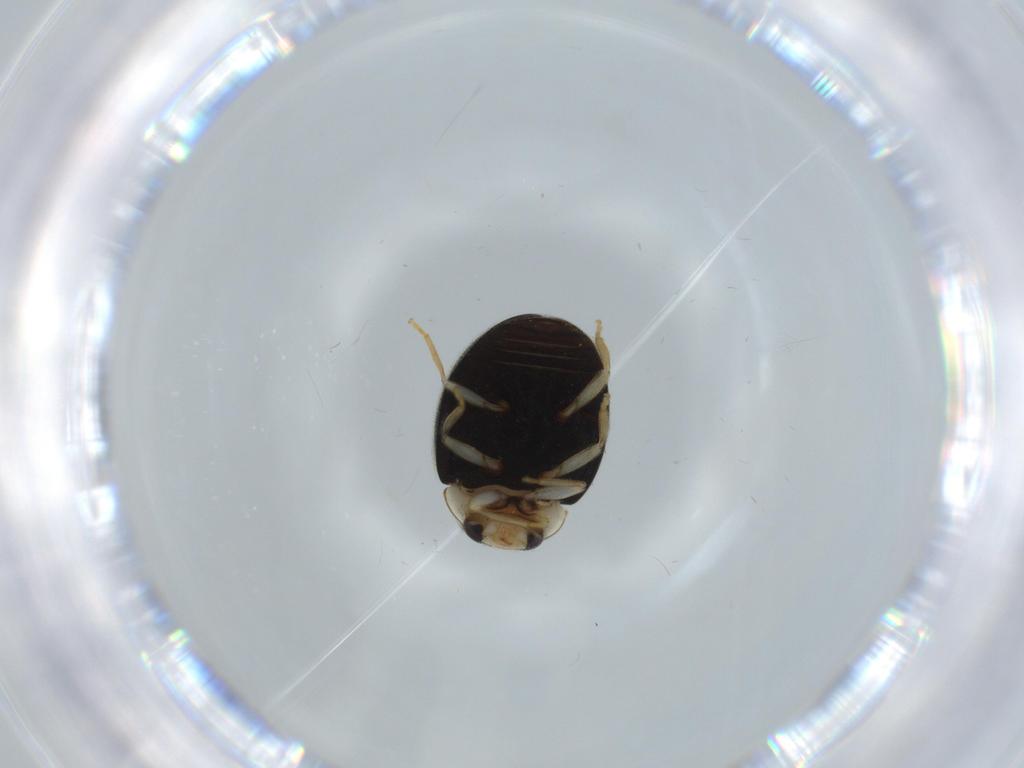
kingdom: Animalia
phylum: Arthropoda
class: Insecta
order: Coleoptera
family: Coccinellidae
